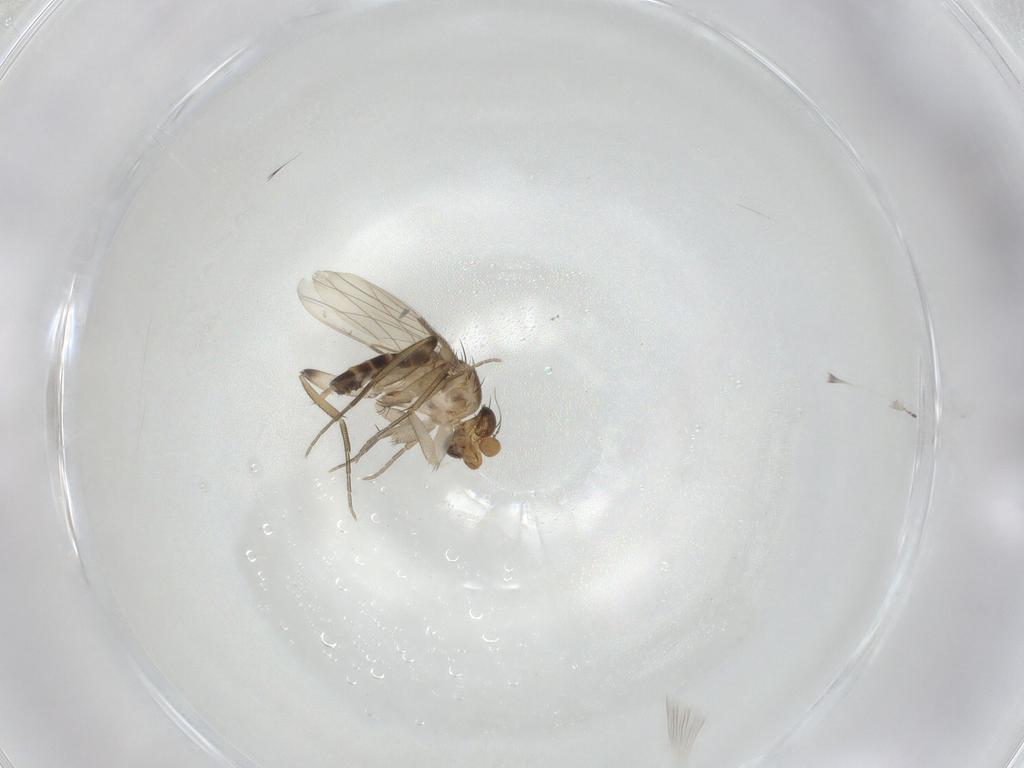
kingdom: Animalia
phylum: Arthropoda
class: Insecta
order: Diptera
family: Phoridae
